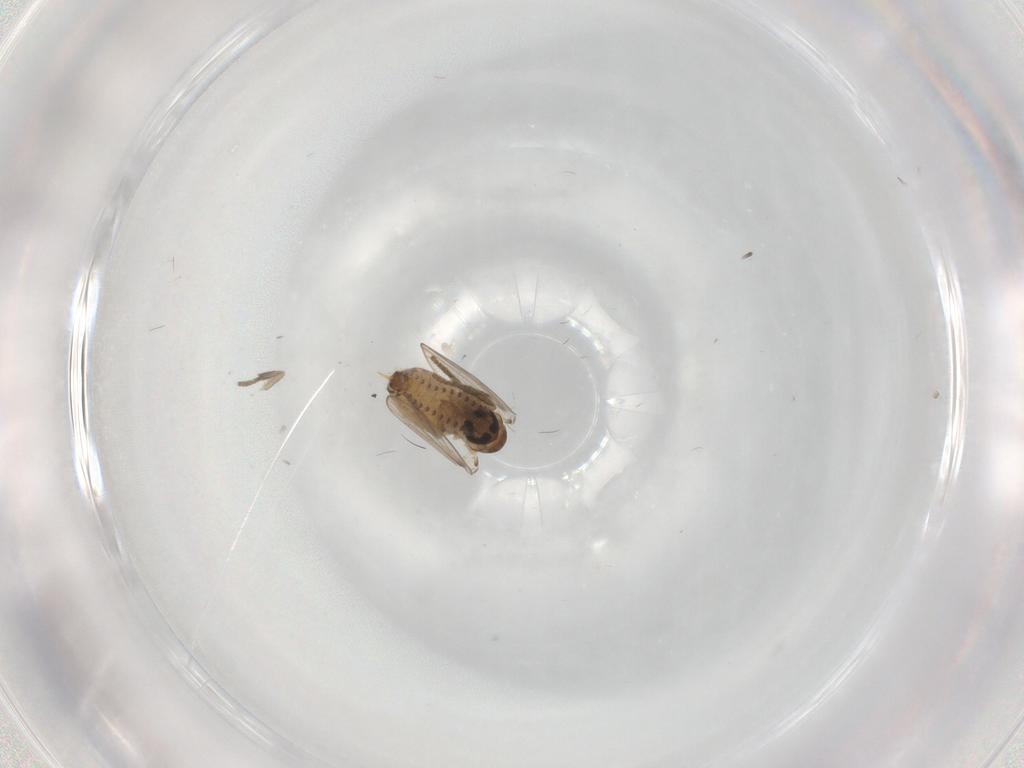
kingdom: Animalia
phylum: Arthropoda
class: Insecta
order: Diptera
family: Psychodidae
